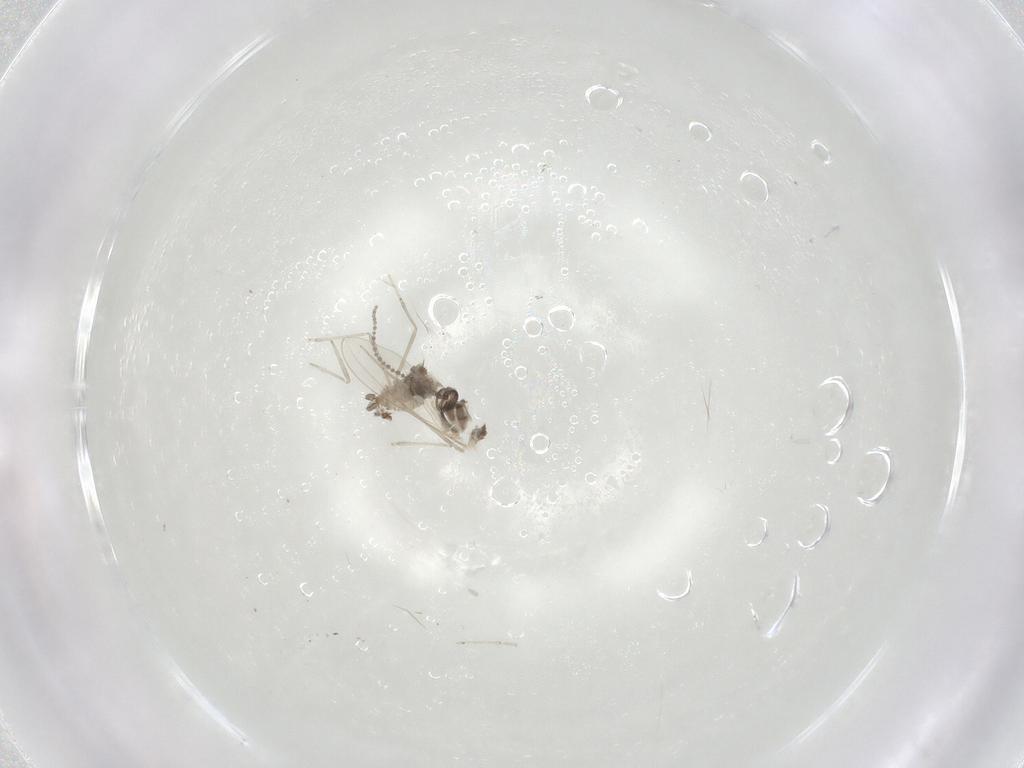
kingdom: Animalia
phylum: Arthropoda
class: Insecta
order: Diptera
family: Cecidomyiidae
